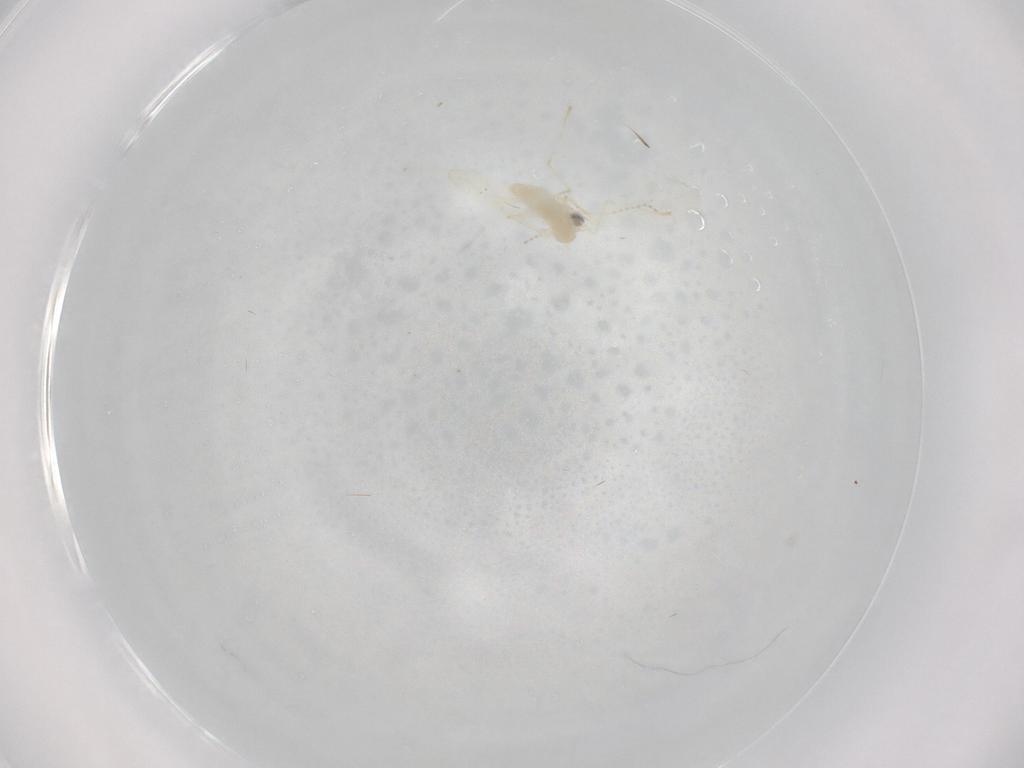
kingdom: Animalia
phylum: Arthropoda
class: Insecta
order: Diptera
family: Cecidomyiidae
